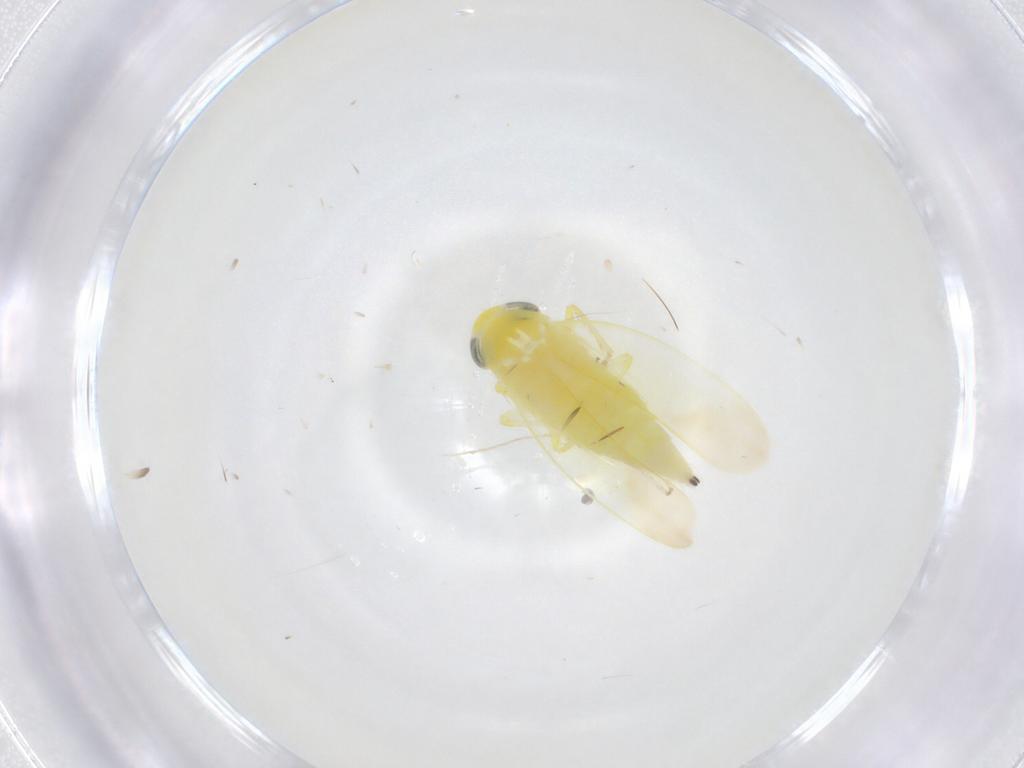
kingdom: Animalia
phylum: Arthropoda
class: Insecta
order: Hemiptera
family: Cicadellidae
